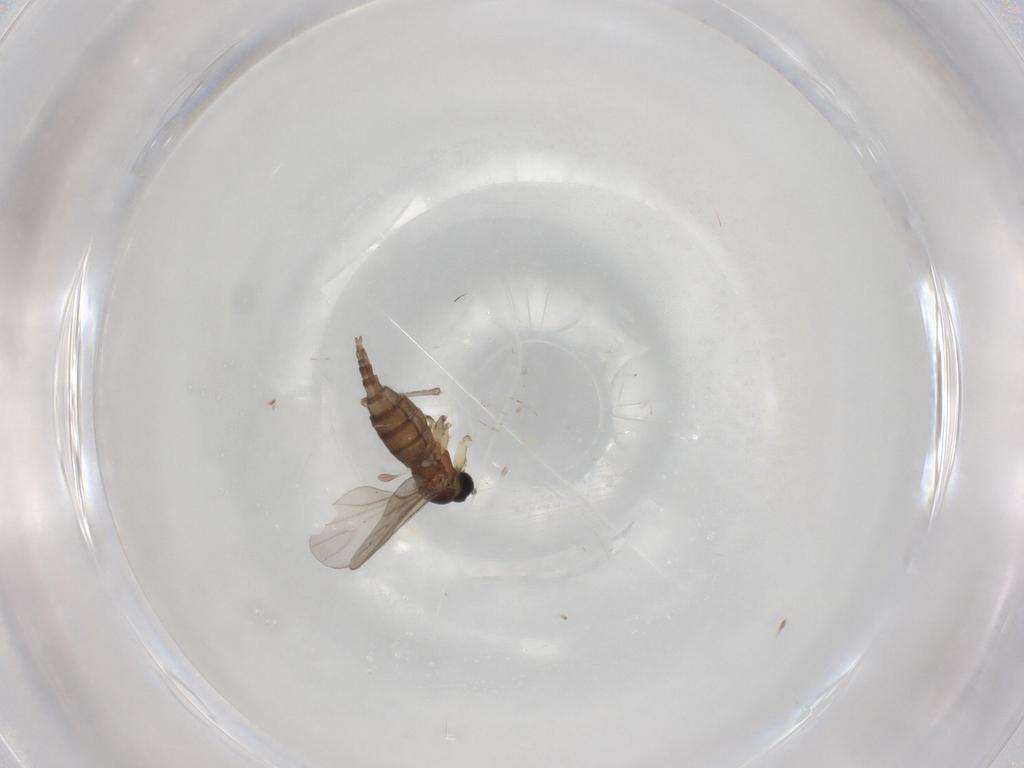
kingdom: Animalia
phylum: Arthropoda
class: Insecta
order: Diptera
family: Sciaridae
